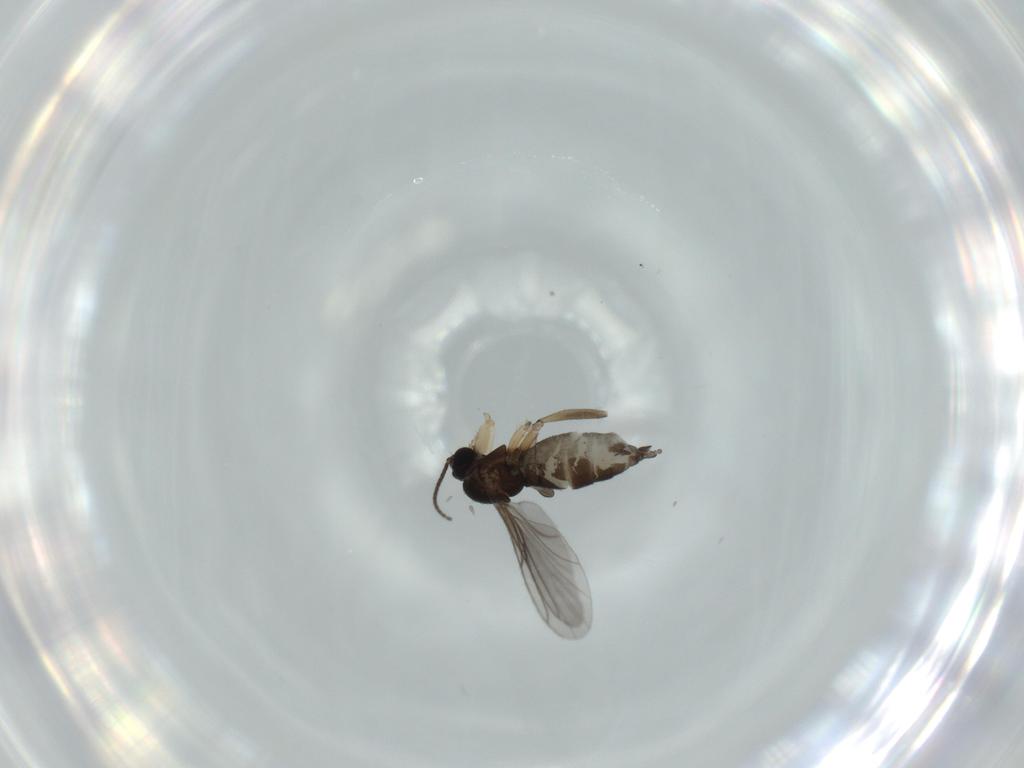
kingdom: Animalia
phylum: Arthropoda
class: Insecta
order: Diptera
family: Sciaridae
